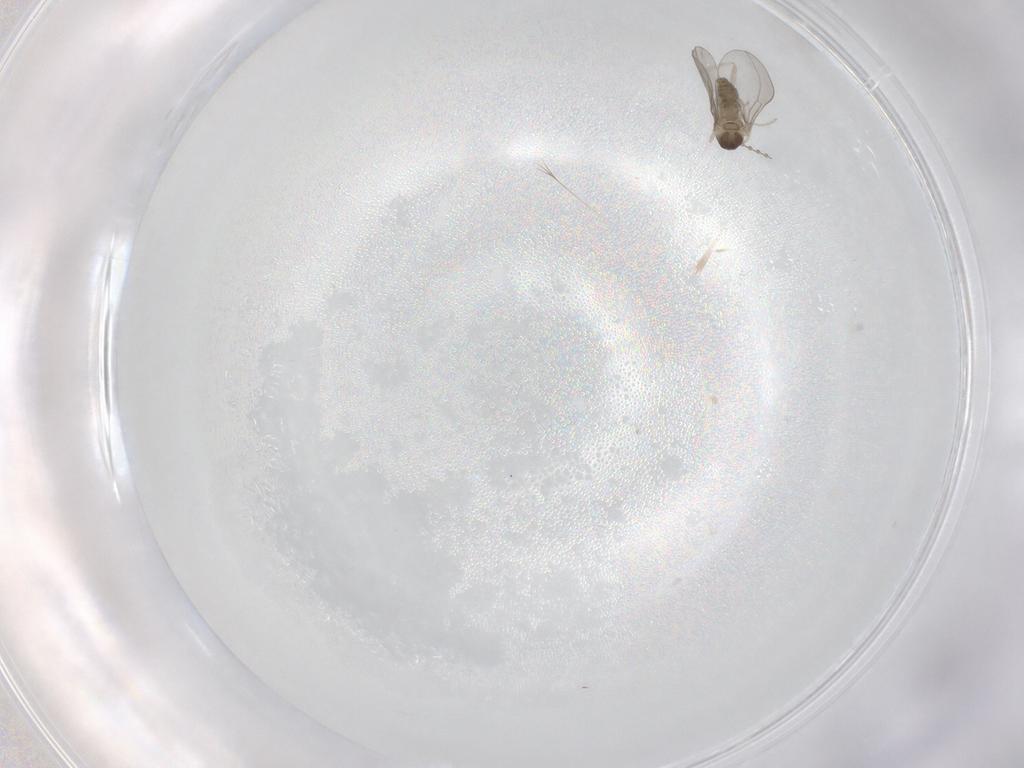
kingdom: Animalia
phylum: Arthropoda
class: Insecta
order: Diptera
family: Cecidomyiidae
